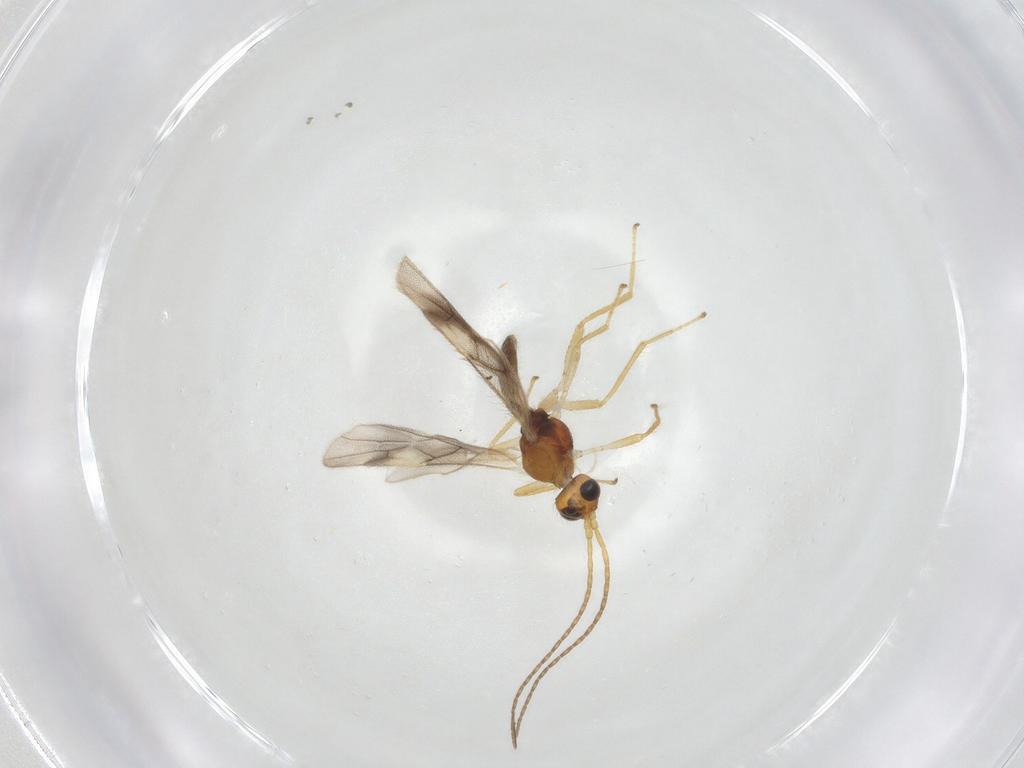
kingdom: Animalia
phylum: Arthropoda
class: Insecta
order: Hymenoptera
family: Braconidae
